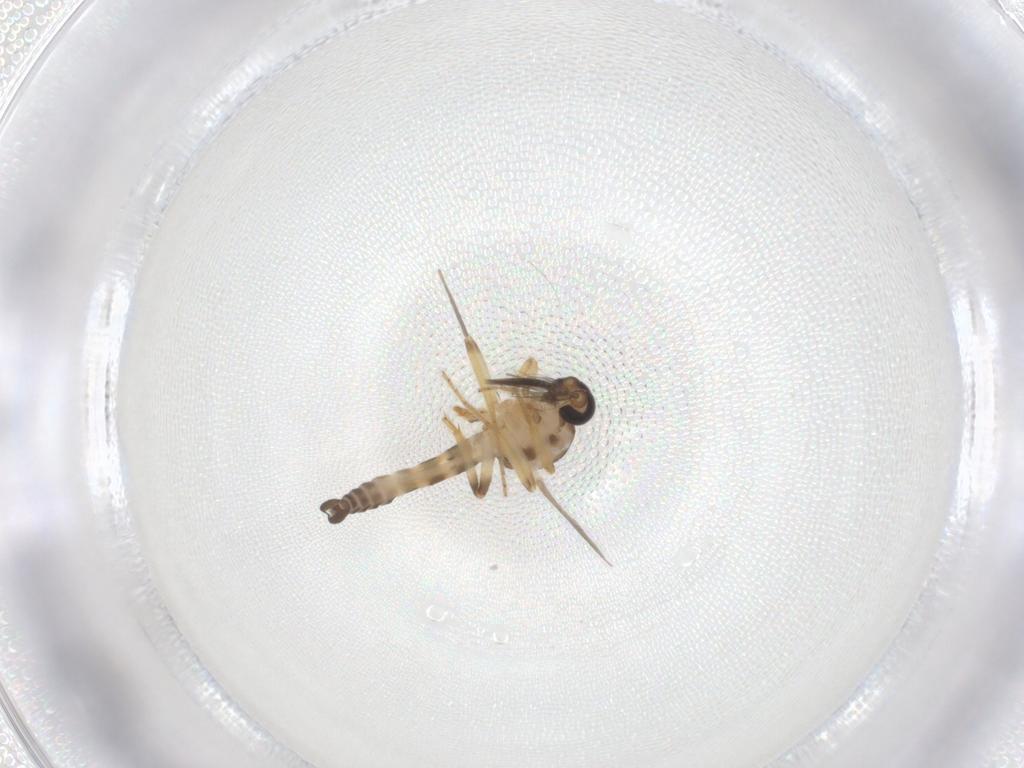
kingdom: Animalia
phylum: Arthropoda
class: Insecta
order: Diptera
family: Ceratopogonidae
